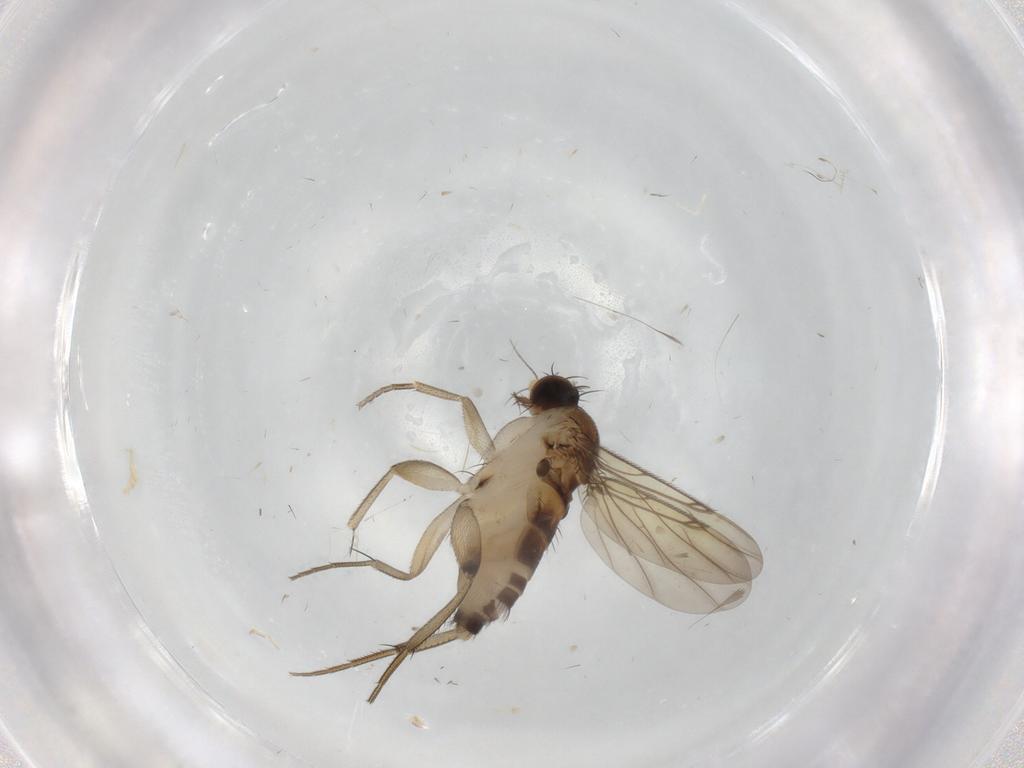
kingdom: Animalia
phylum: Arthropoda
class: Insecta
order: Diptera
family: Phoridae
